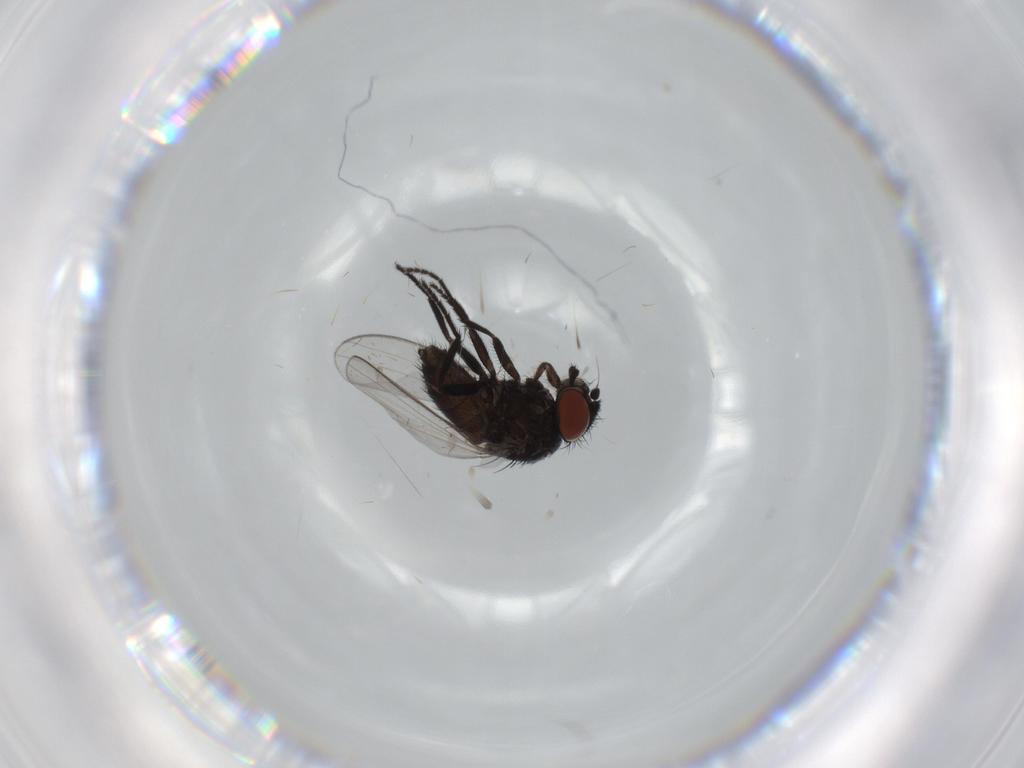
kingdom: Animalia
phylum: Arthropoda
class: Insecta
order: Diptera
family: Milichiidae
